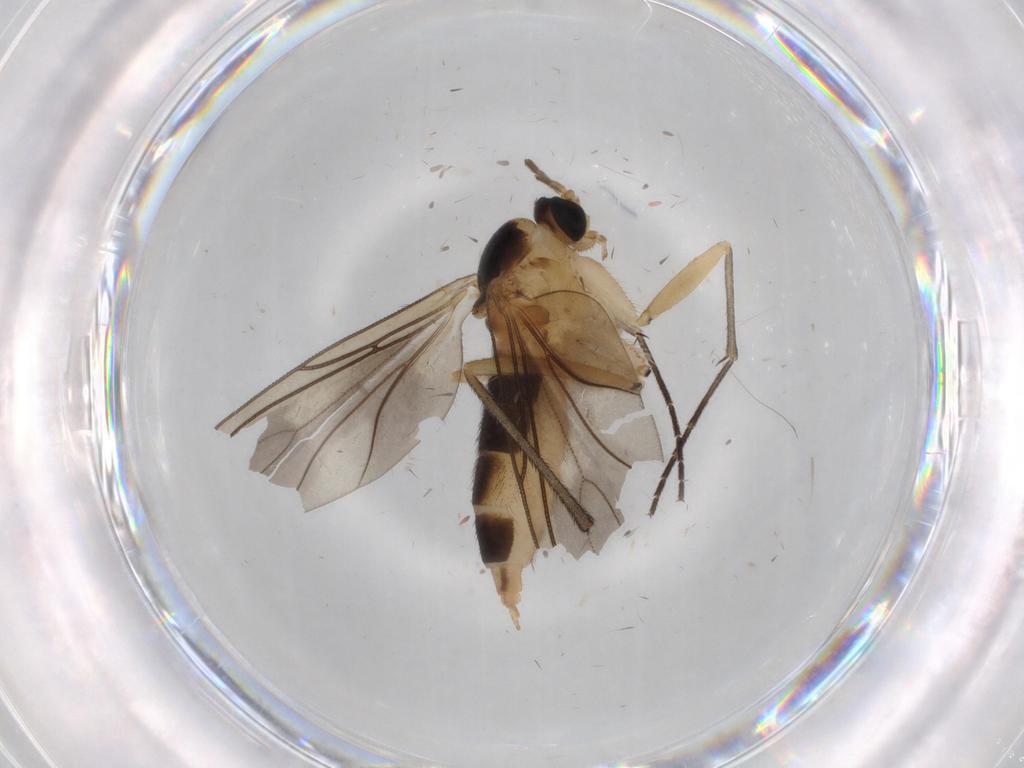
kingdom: Animalia
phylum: Arthropoda
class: Insecta
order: Diptera
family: Sciaridae
